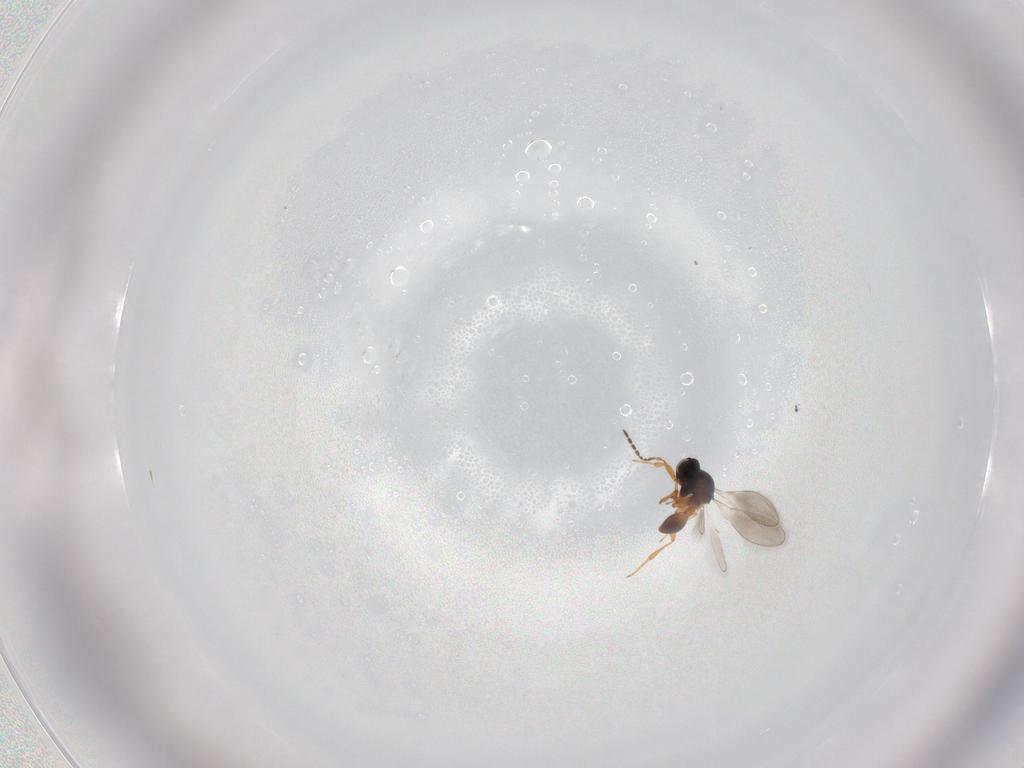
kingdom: Animalia
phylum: Arthropoda
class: Insecta
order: Hymenoptera
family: Platygastridae
